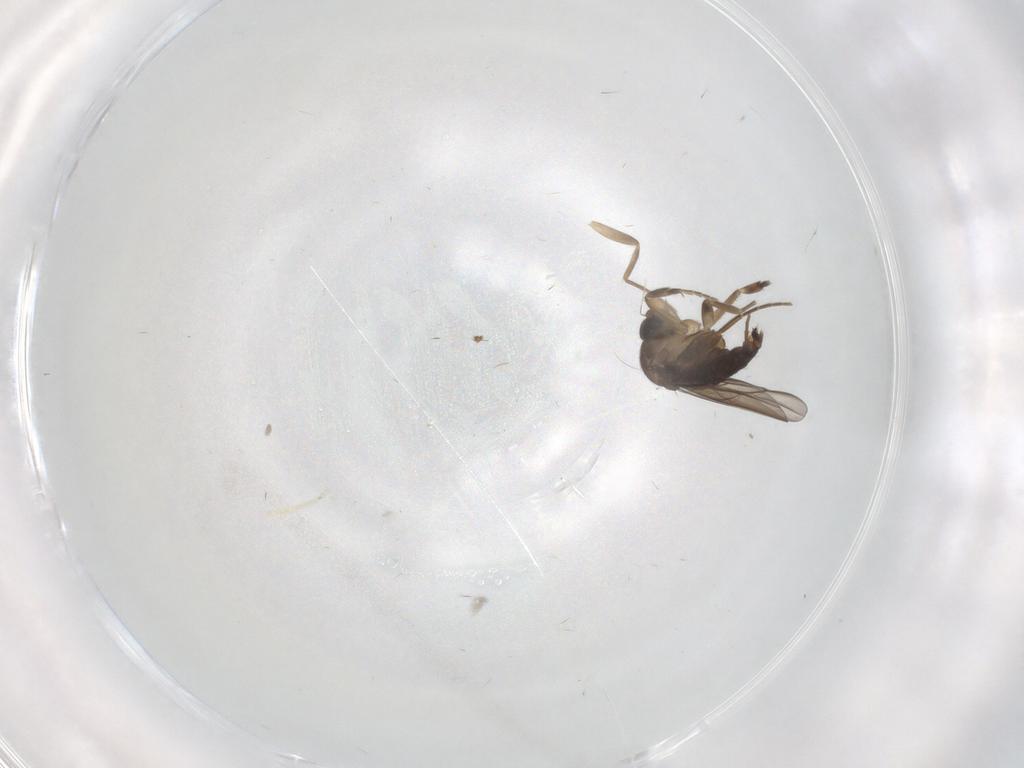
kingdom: Animalia
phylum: Arthropoda
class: Insecta
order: Diptera
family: Phoridae
